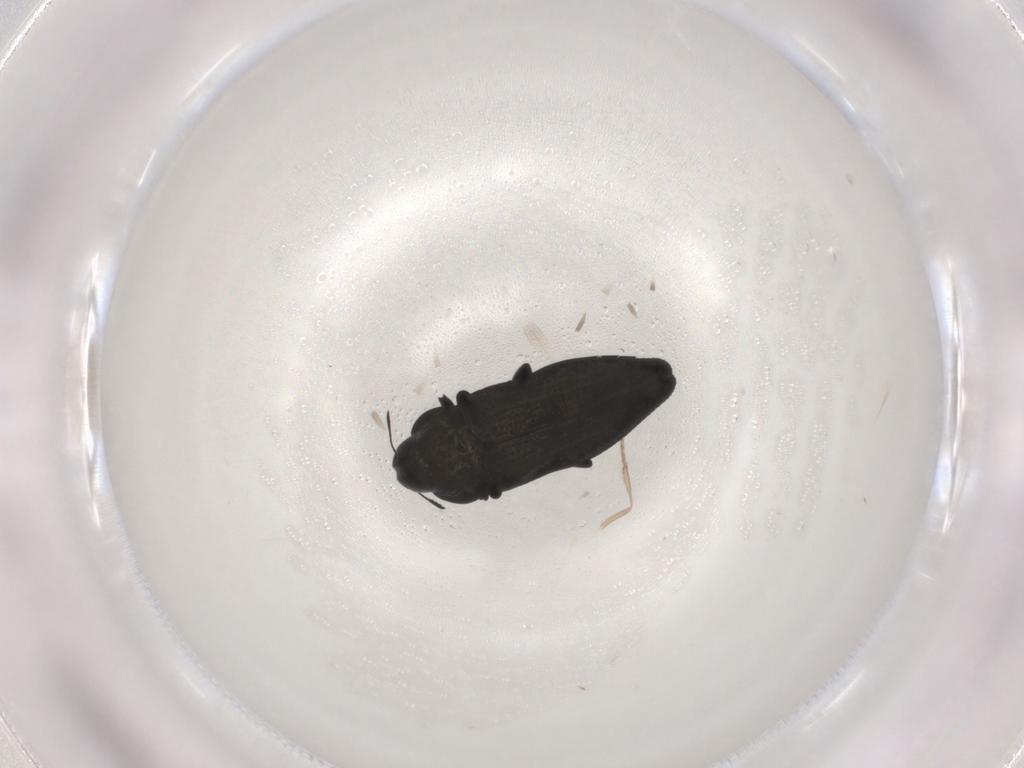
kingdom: Animalia
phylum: Arthropoda
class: Insecta
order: Coleoptera
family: Buprestidae
